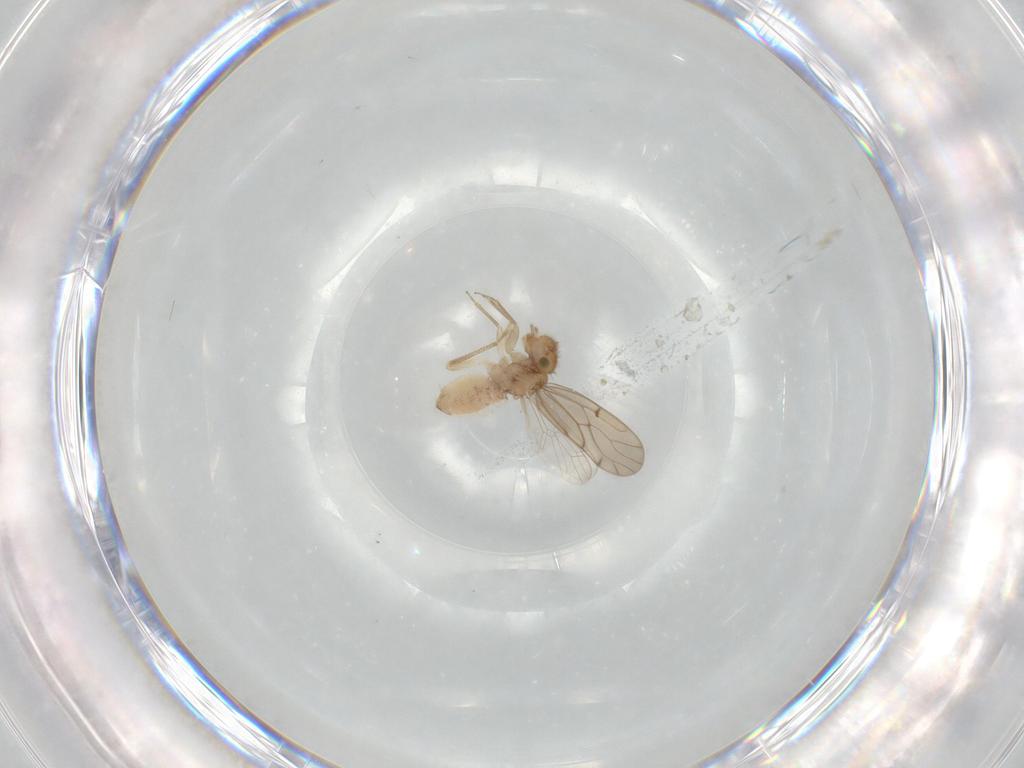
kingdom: Animalia
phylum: Arthropoda
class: Insecta
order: Psocodea
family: Ectopsocidae
